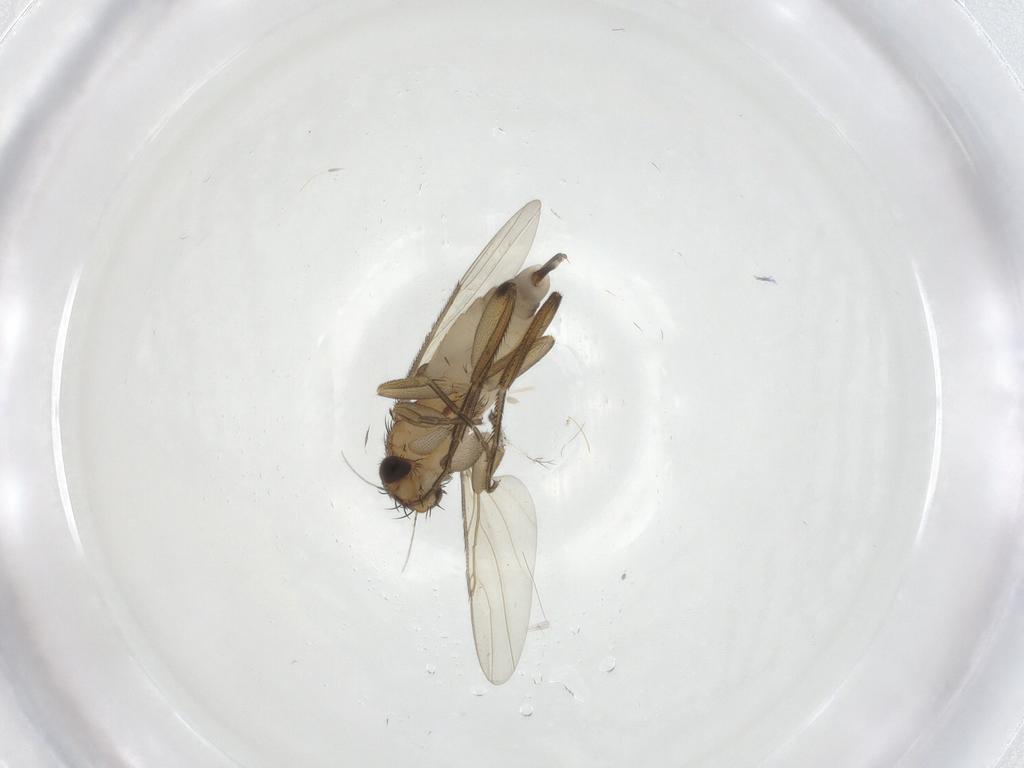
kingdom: Animalia
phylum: Arthropoda
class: Insecta
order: Diptera
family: Phoridae
